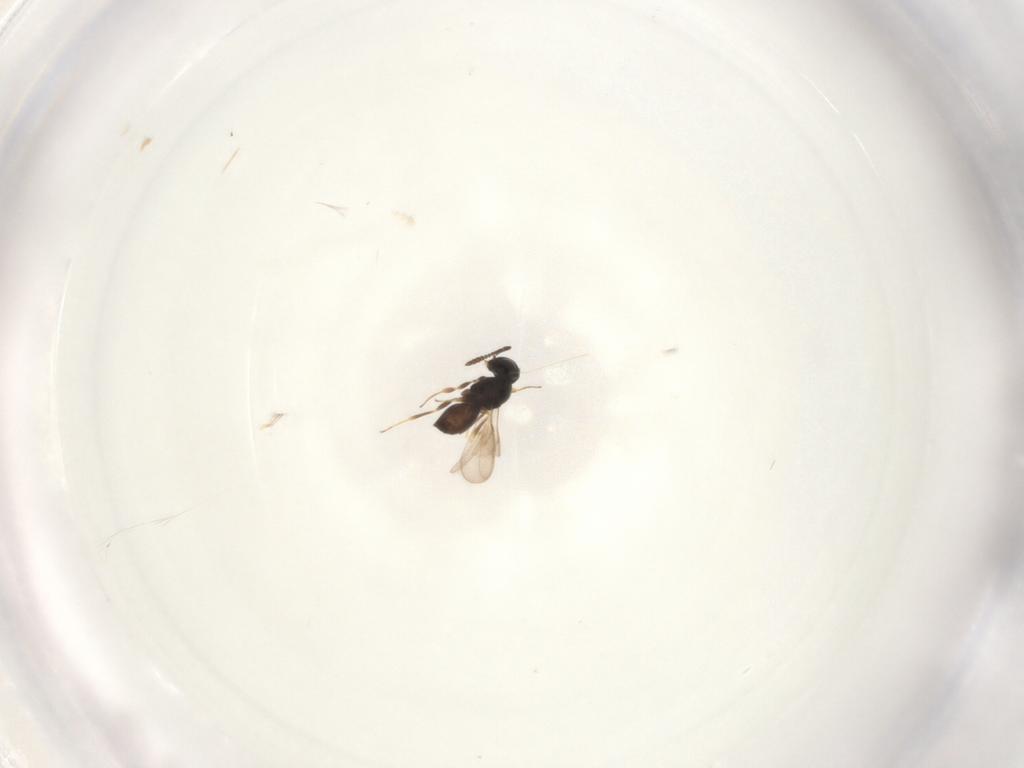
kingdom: Animalia
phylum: Arthropoda
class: Insecta
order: Hymenoptera
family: Scelionidae
